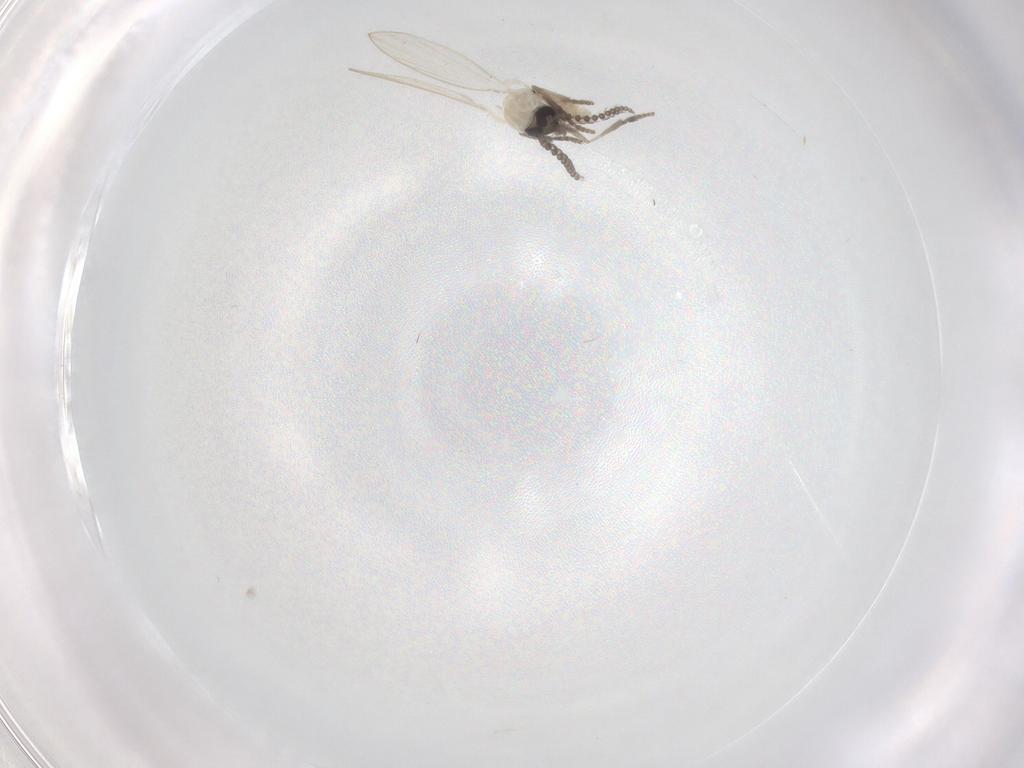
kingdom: Animalia
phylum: Arthropoda
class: Insecta
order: Diptera
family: Psychodidae
